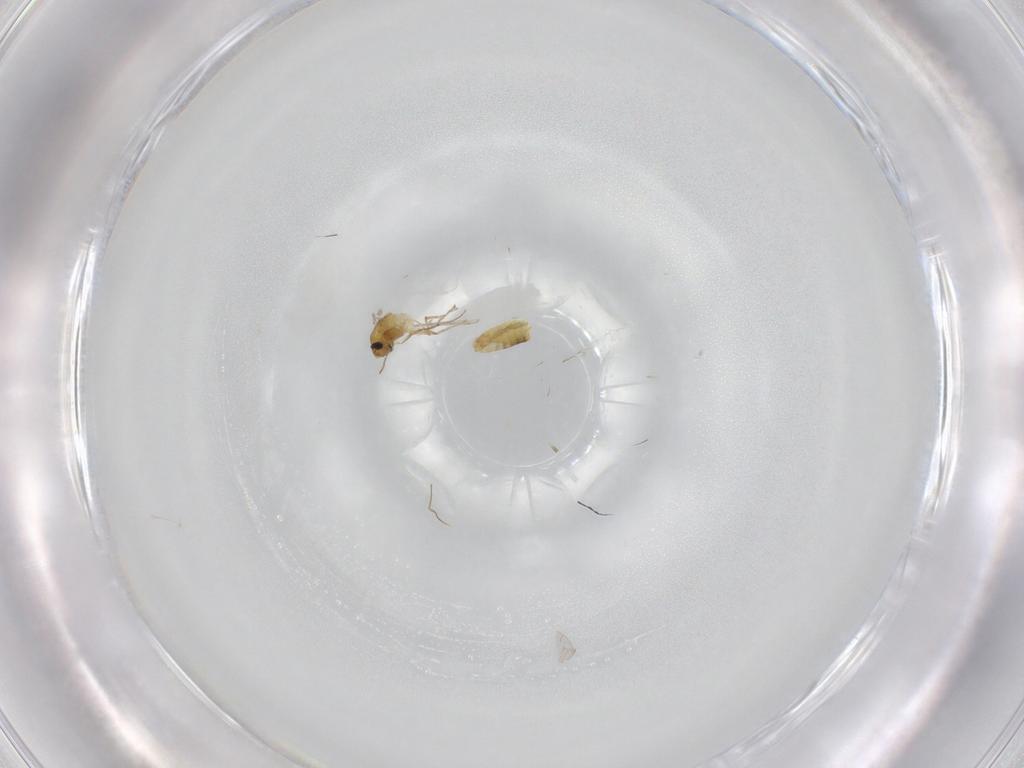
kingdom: Animalia
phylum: Arthropoda
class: Insecta
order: Diptera
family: Chironomidae
